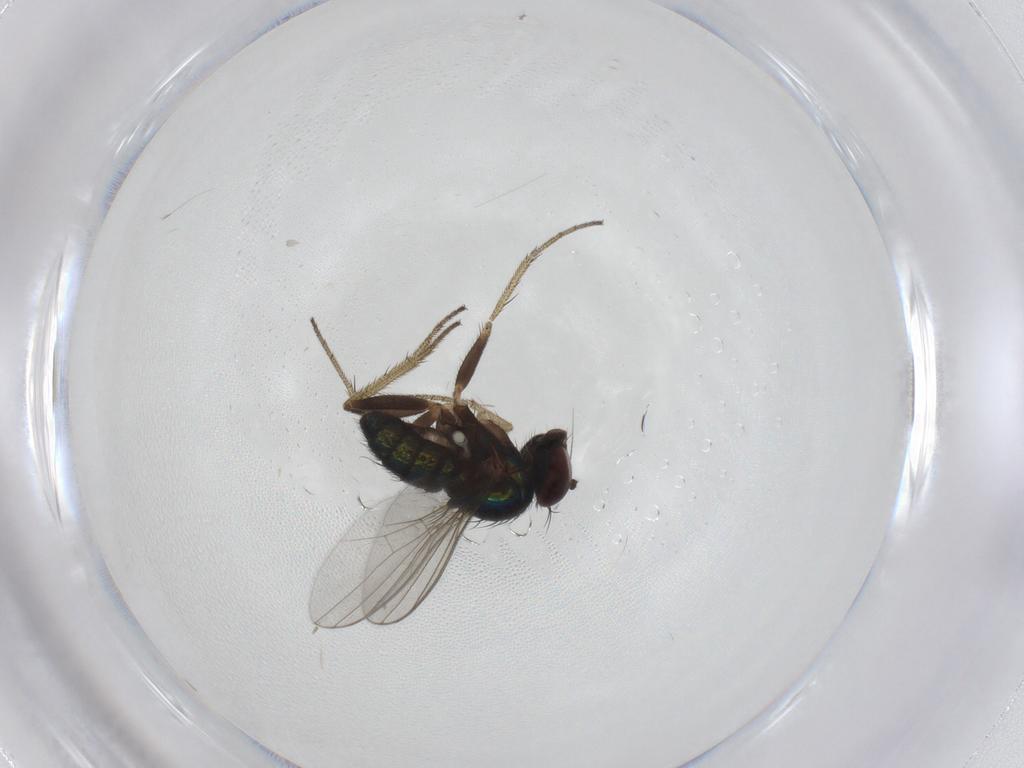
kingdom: Animalia
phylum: Arthropoda
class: Insecta
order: Diptera
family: Dolichopodidae
